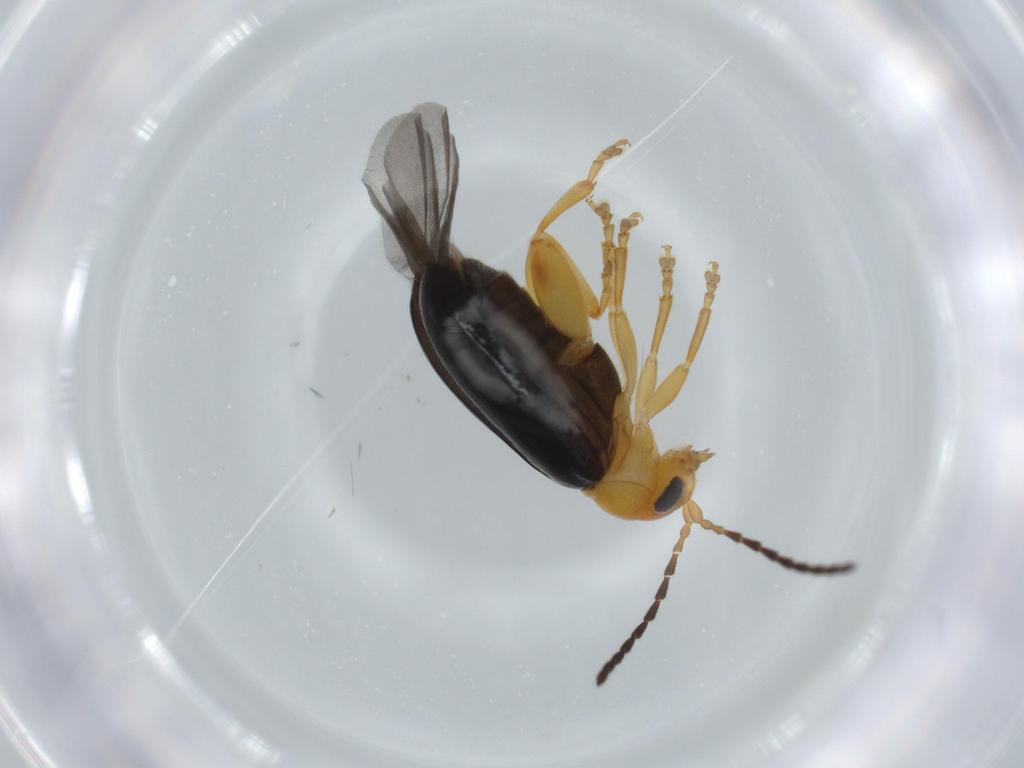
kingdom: Animalia
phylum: Arthropoda
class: Insecta
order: Coleoptera
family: Chrysomelidae
